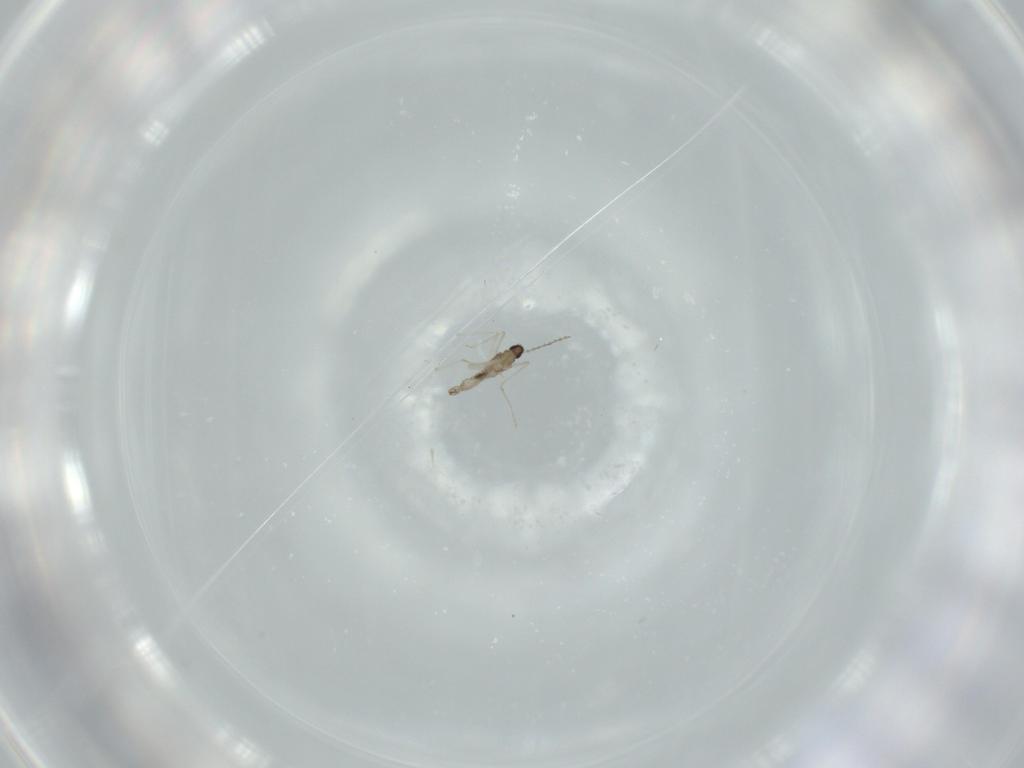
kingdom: Animalia
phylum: Arthropoda
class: Insecta
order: Diptera
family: Cecidomyiidae
